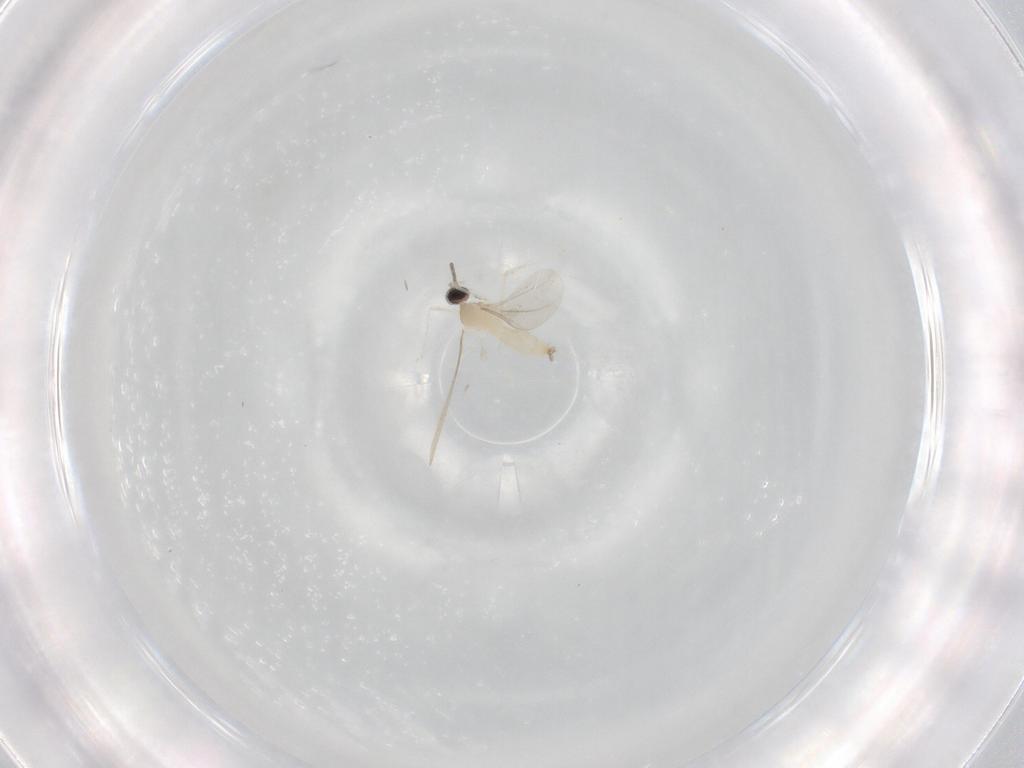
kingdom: Animalia
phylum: Arthropoda
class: Insecta
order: Diptera
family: Cecidomyiidae
